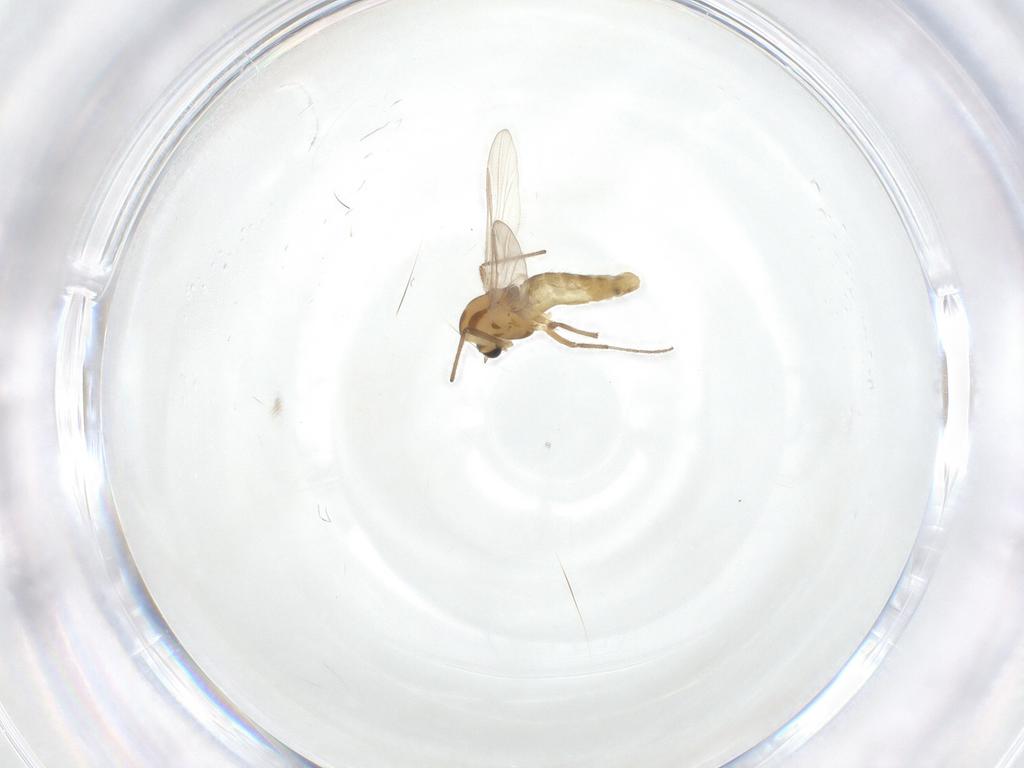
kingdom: Animalia
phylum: Arthropoda
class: Insecta
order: Diptera
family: Chironomidae
